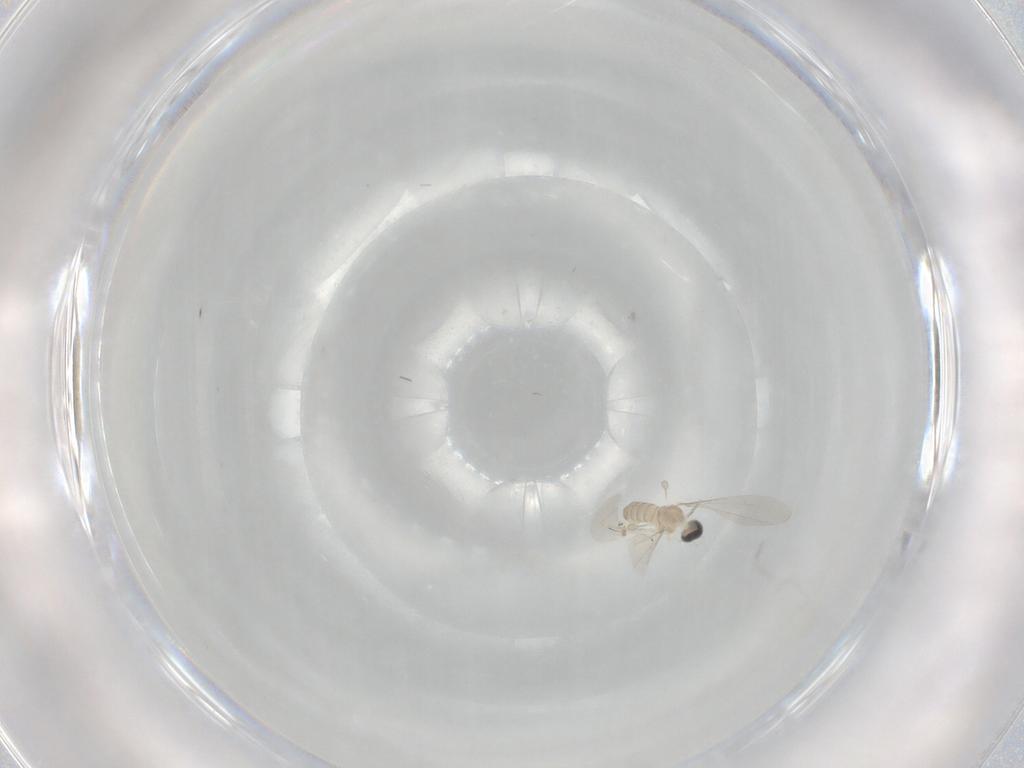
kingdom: Animalia
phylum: Arthropoda
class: Insecta
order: Diptera
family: Cecidomyiidae
